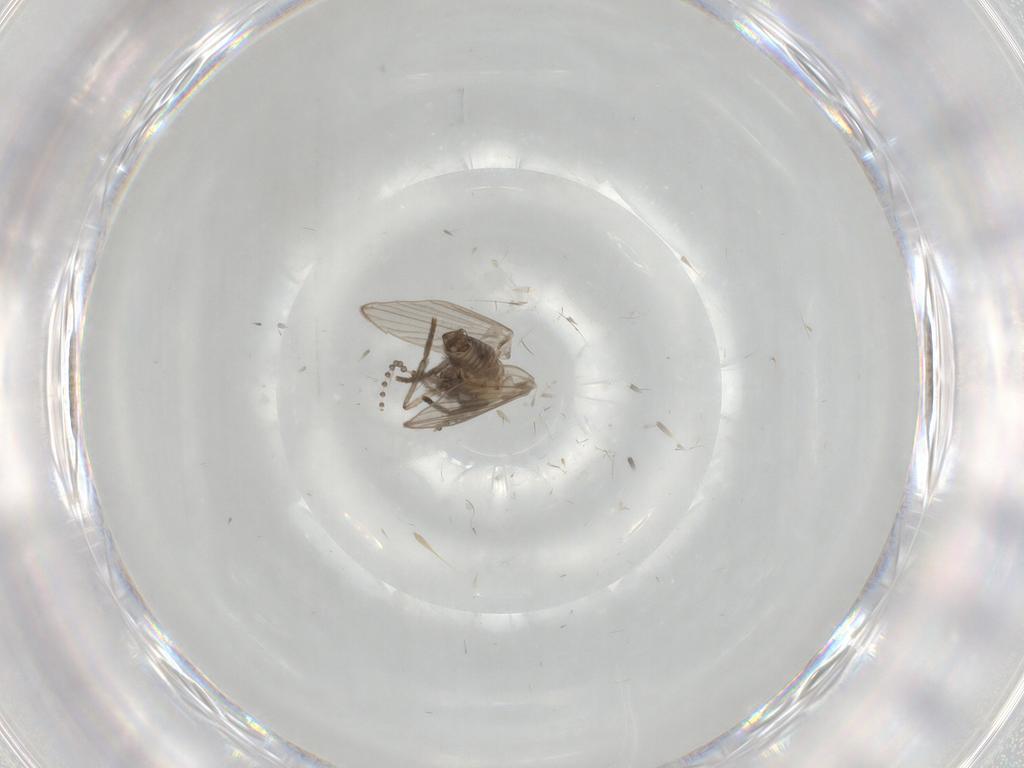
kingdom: Animalia
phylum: Arthropoda
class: Insecta
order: Diptera
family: Psychodidae
